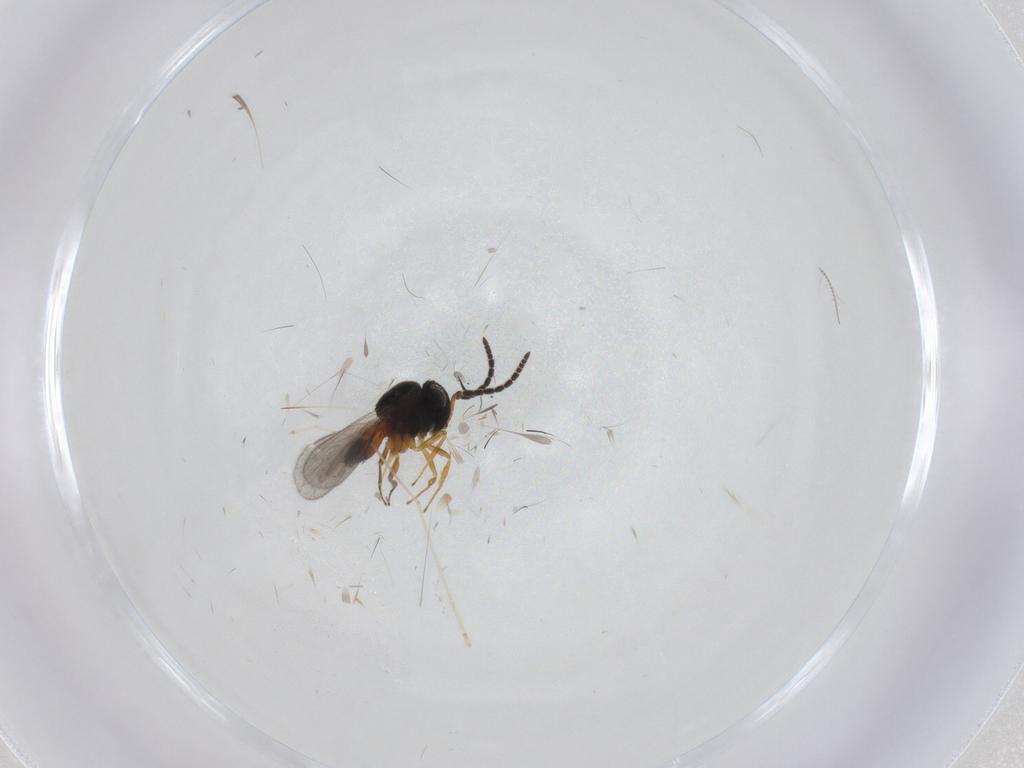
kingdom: Animalia
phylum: Arthropoda
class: Insecta
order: Hymenoptera
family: Scelionidae
